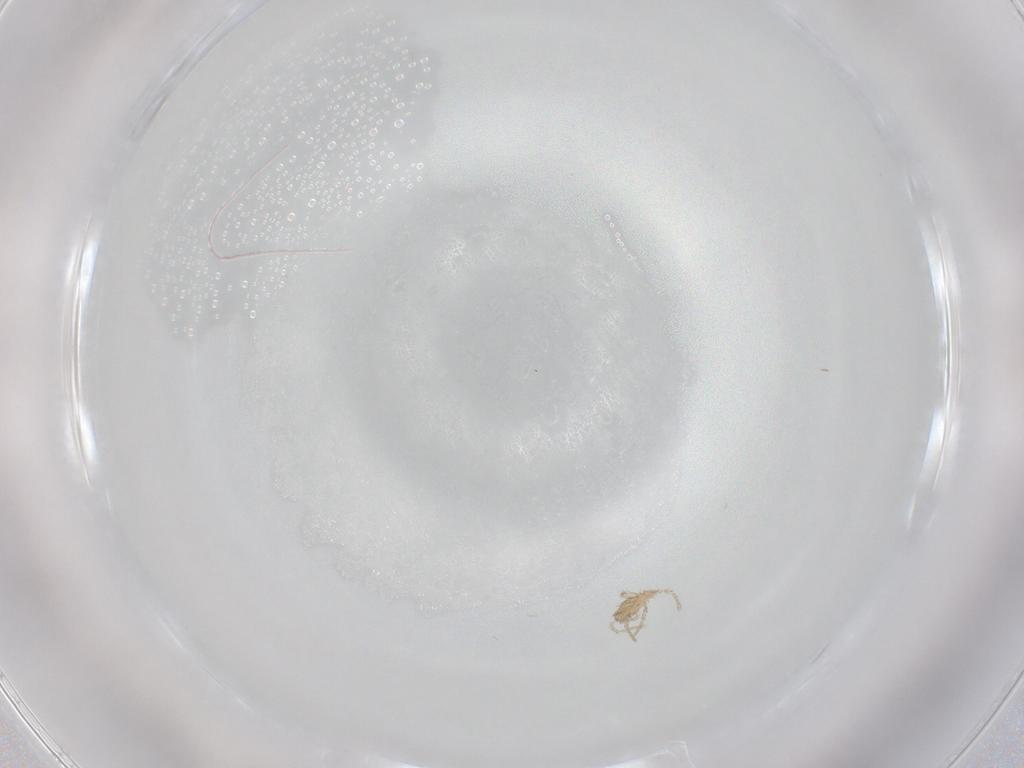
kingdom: Animalia
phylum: Arthropoda
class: Arachnida
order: Trombidiformes
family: Erythraeidae
